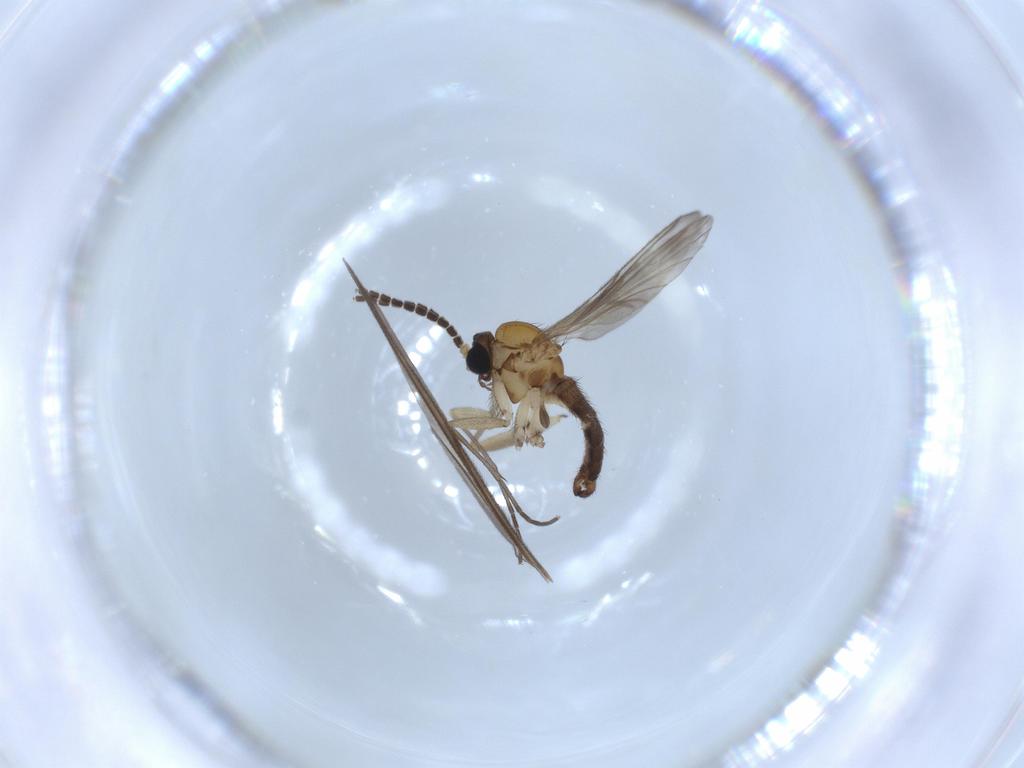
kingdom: Animalia
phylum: Arthropoda
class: Insecta
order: Diptera
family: Sciaridae
